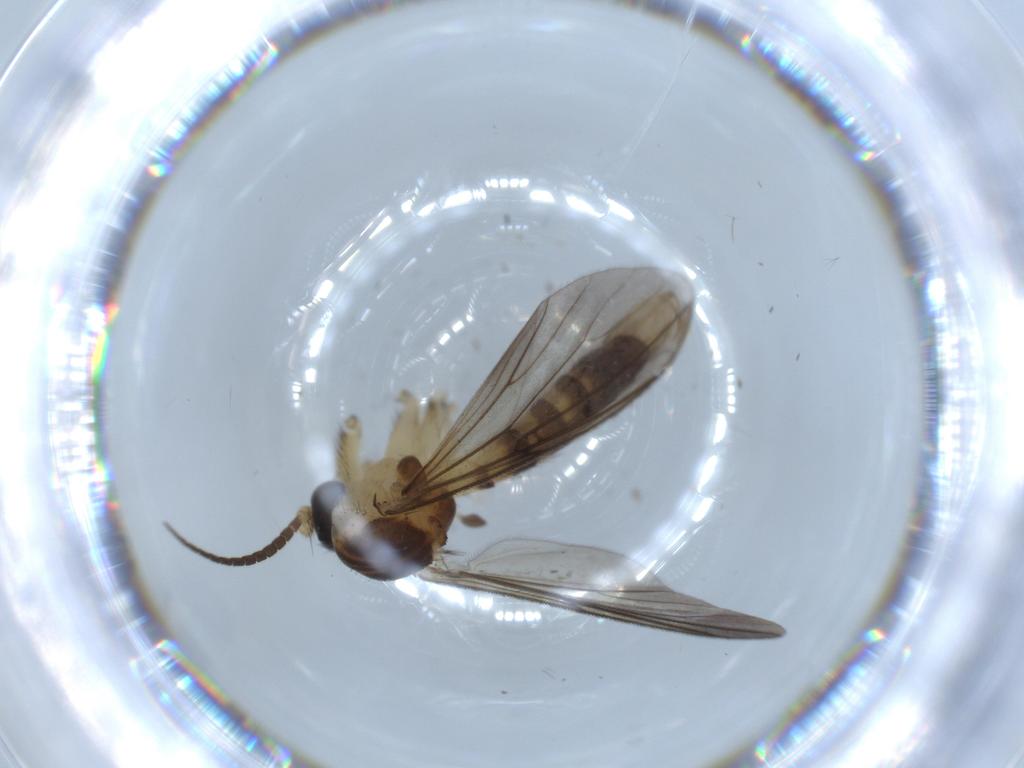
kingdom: Animalia
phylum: Arthropoda
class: Insecta
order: Diptera
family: Mycetophilidae
